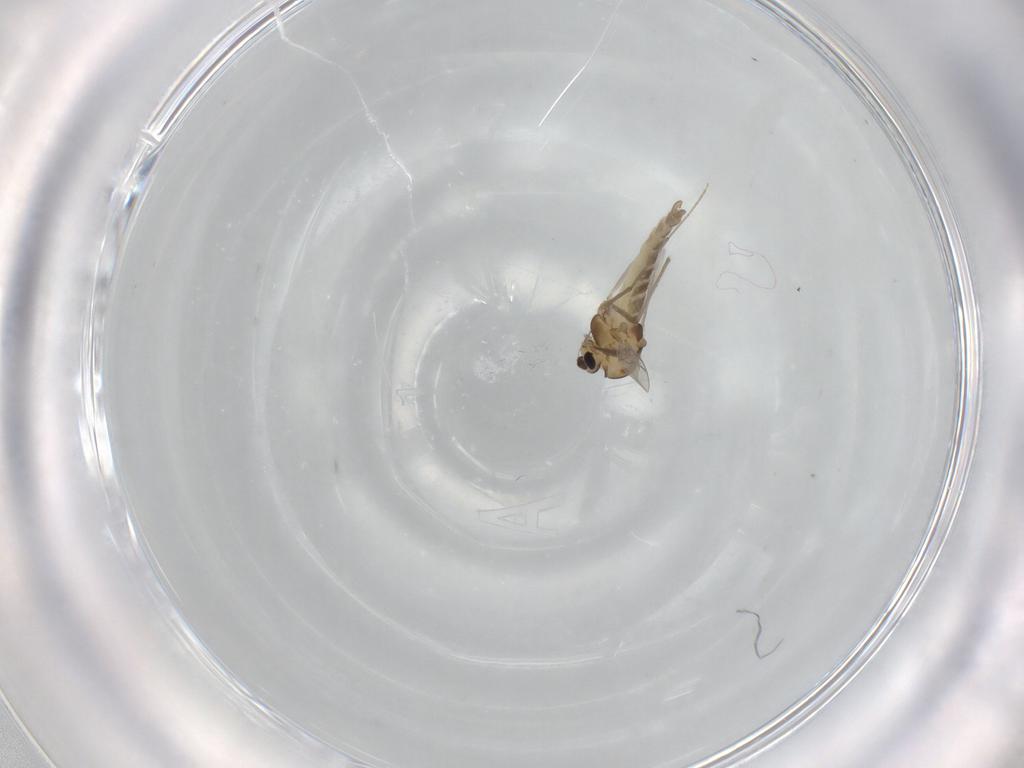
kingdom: Animalia
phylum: Arthropoda
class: Insecta
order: Diptera
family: Chironomidae
